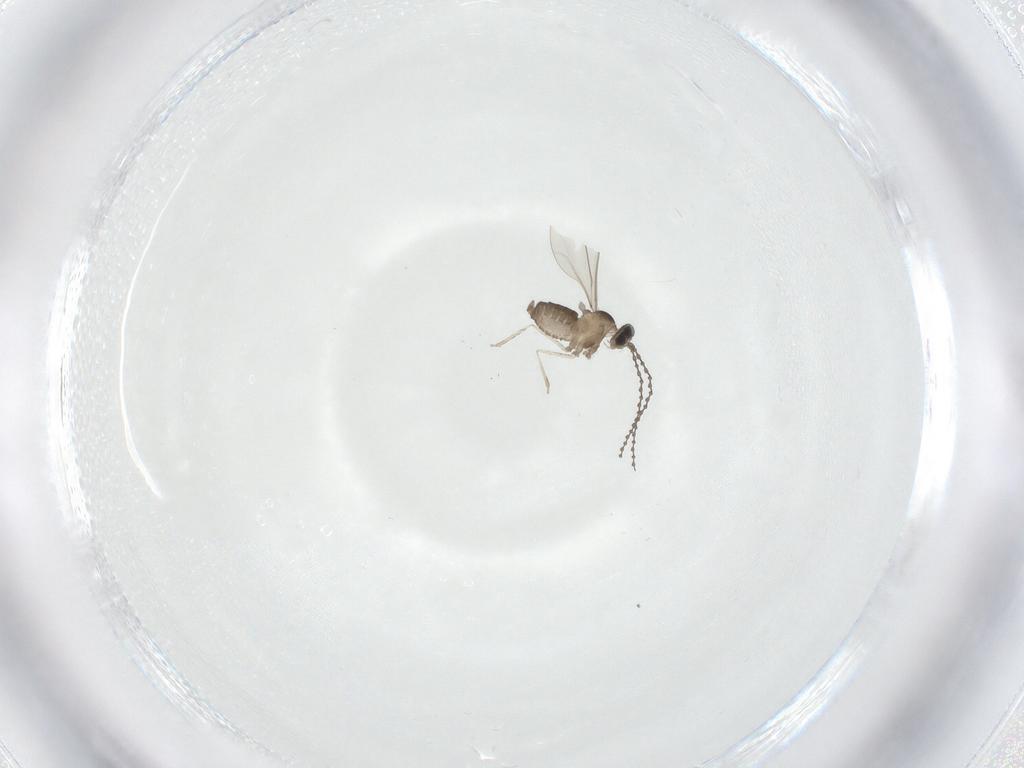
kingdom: Animalia
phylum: Arthropoda
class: Insecta
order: Diptera
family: Cecidomyiidae
